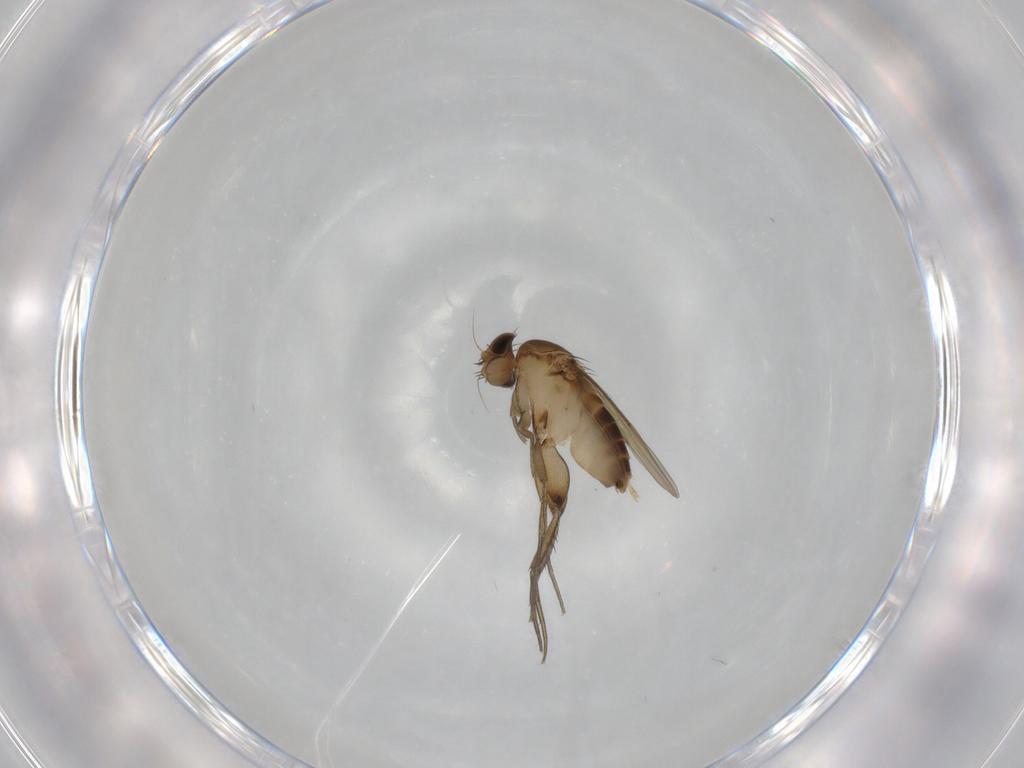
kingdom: Animalia
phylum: Arthropoda
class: Insecta
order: Diptera
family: Phoridae
